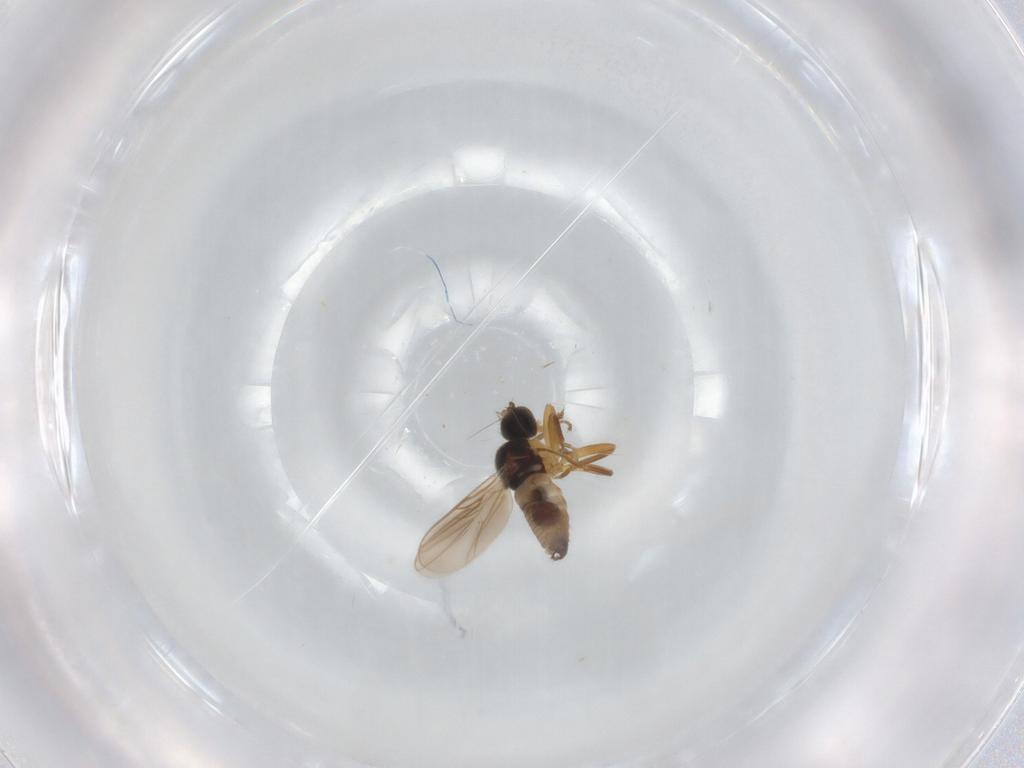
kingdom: Animalia
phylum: Arthropoda
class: Insecta
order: Diptera
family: Hybotidae
